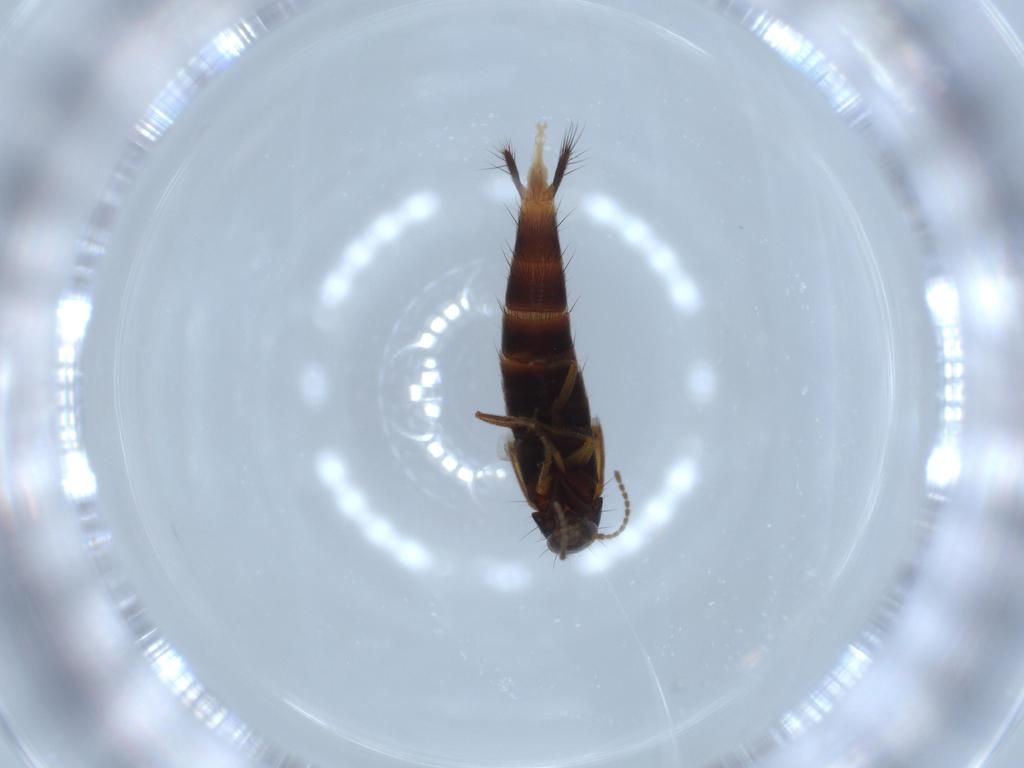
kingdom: Animalia
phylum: Arthropoda
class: Insecta
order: Coleoptera
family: Staphylinidae
